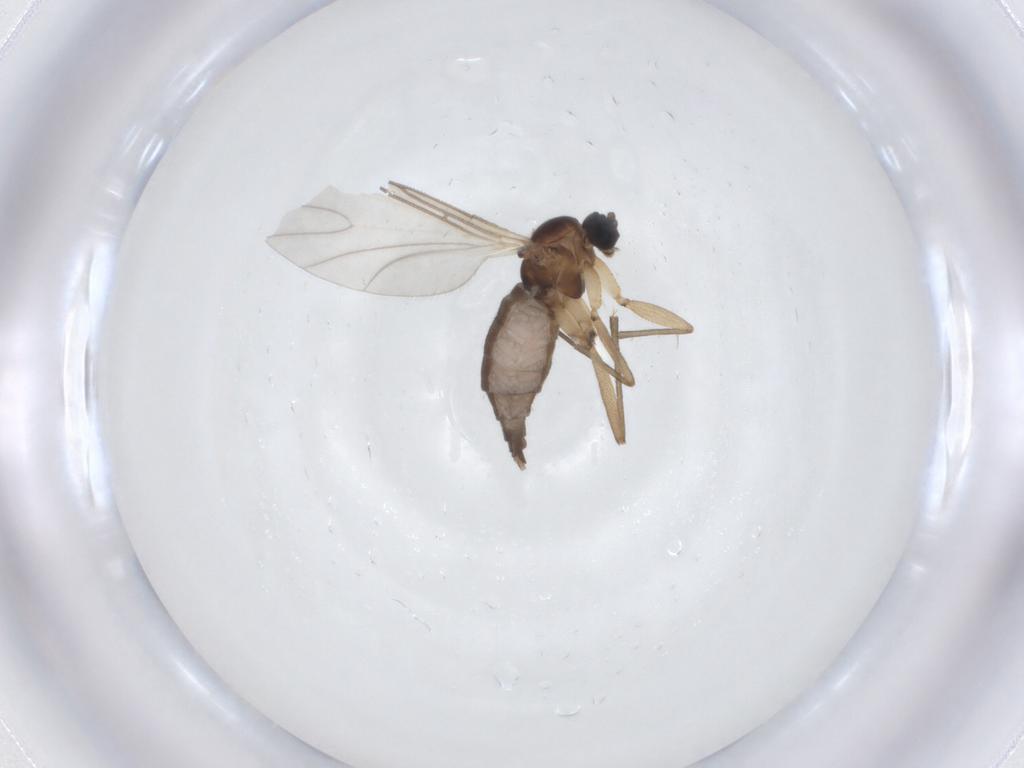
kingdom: Animalia
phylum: Arthropoda
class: Insecta
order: Diptera
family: Sciaridae
